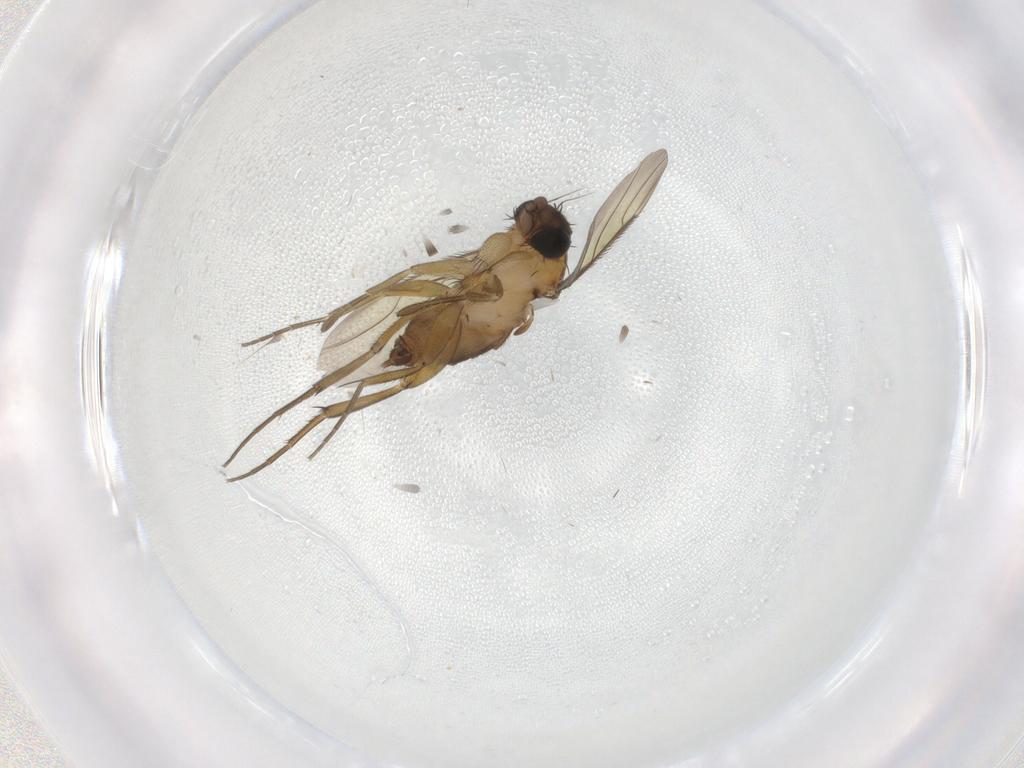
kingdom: Animalia
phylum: Arthropoda
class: Insecta
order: Diptera
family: Phoridae
